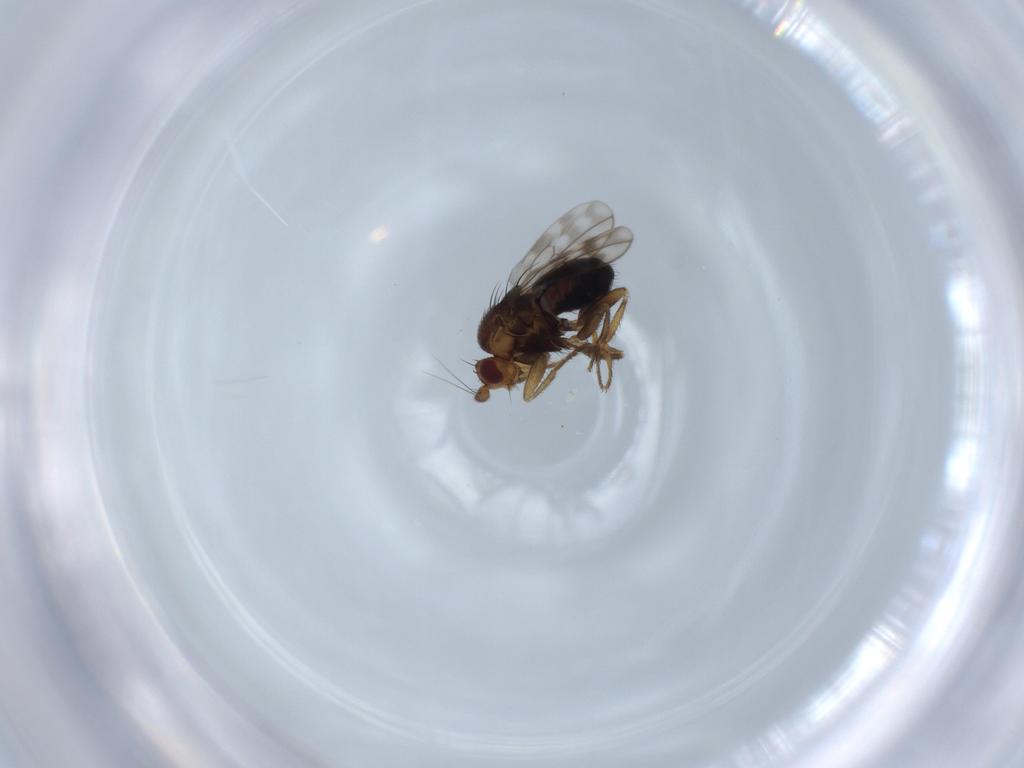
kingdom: Animalia
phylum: Arthropoda
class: Insecta
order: Diptera
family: Sphaeroceridae
